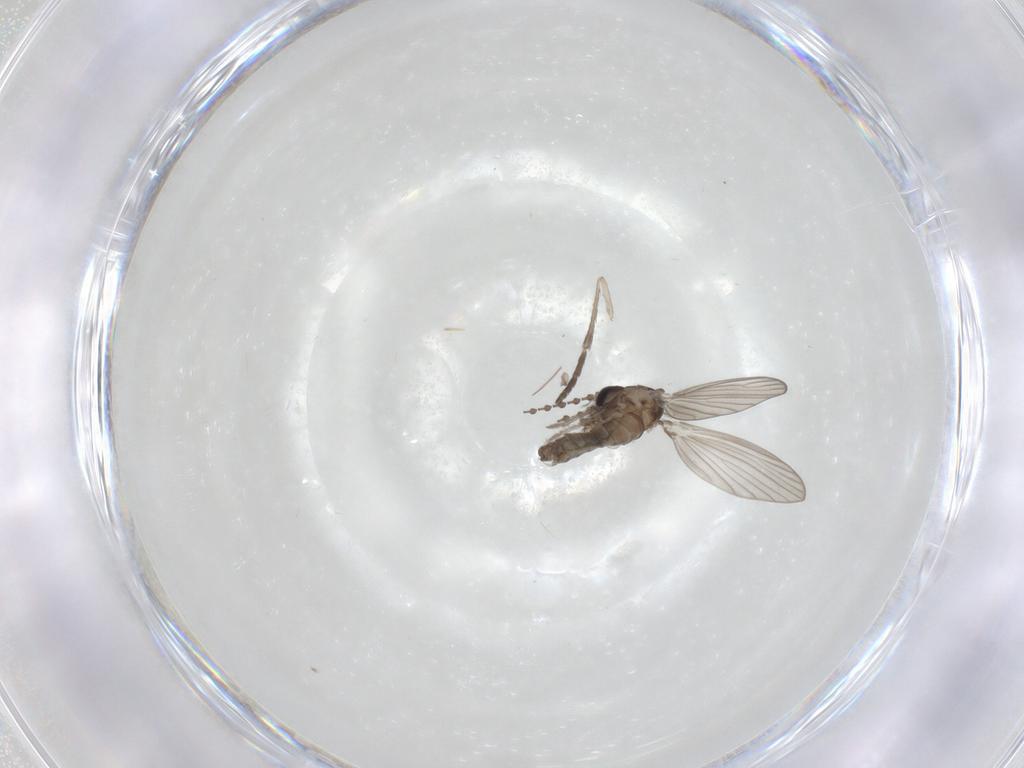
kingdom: Animalia
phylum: Arthropoda
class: Insecta
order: Diptera
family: Psychodidae
